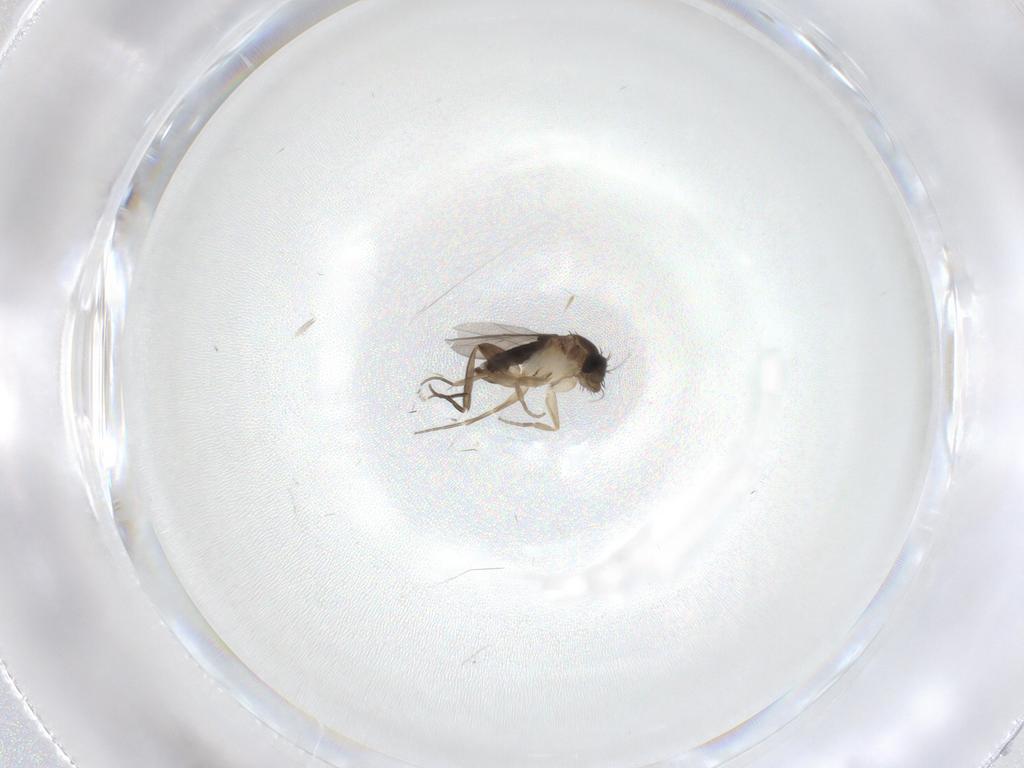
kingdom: Animalia
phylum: Arthropoda
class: Insecta
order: Diptera
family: Phoridae
